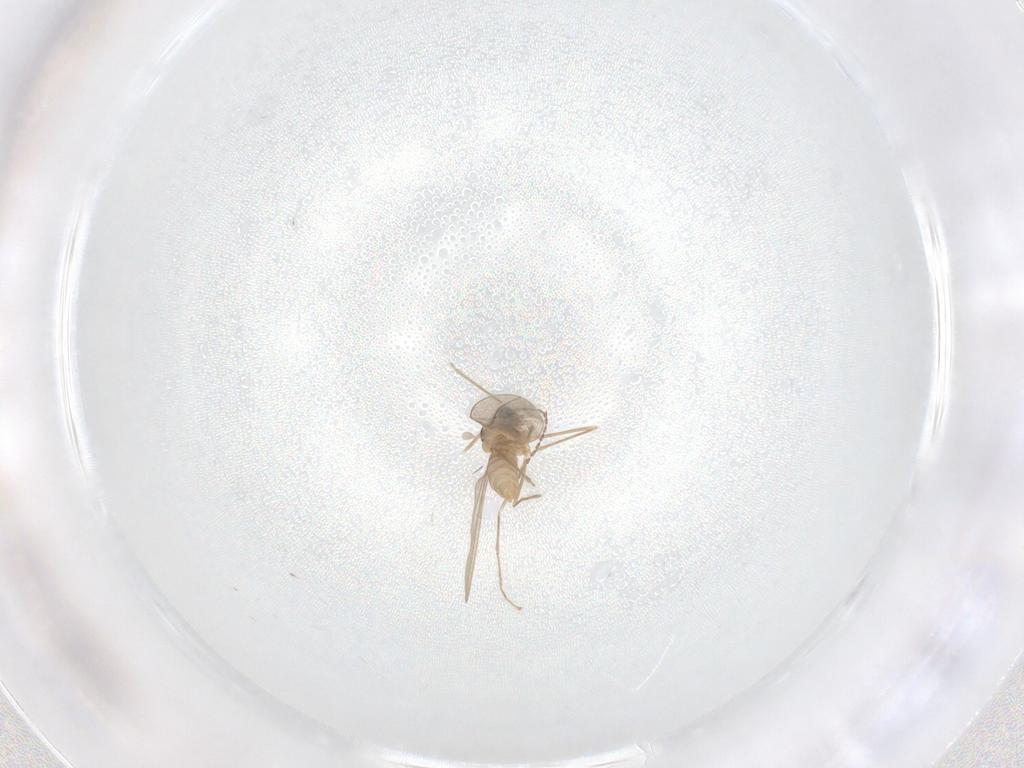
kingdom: Animalia
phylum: Arthropoda
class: Insecta
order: Diptera
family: Cecidomyiidae
